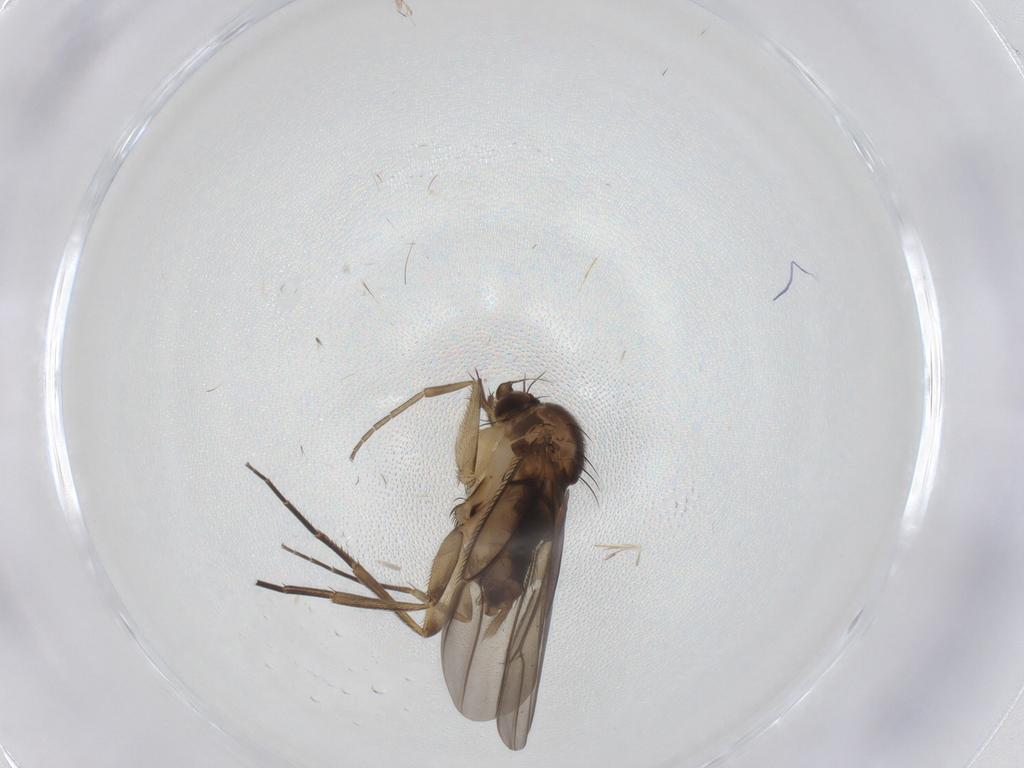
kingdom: Animalia
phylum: Arthropoda
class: Insecta
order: Diptera
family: Phoridae
